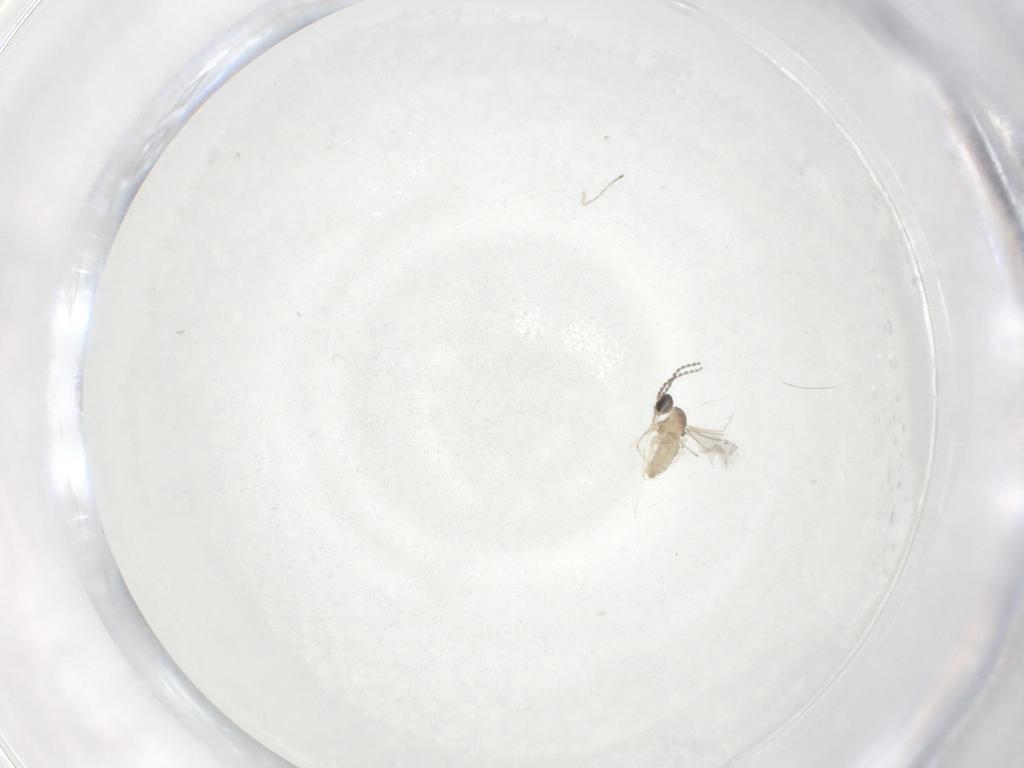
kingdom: Animalia
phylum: Arthropoda
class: Insecta
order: Diptera
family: Cecidomyiidae
